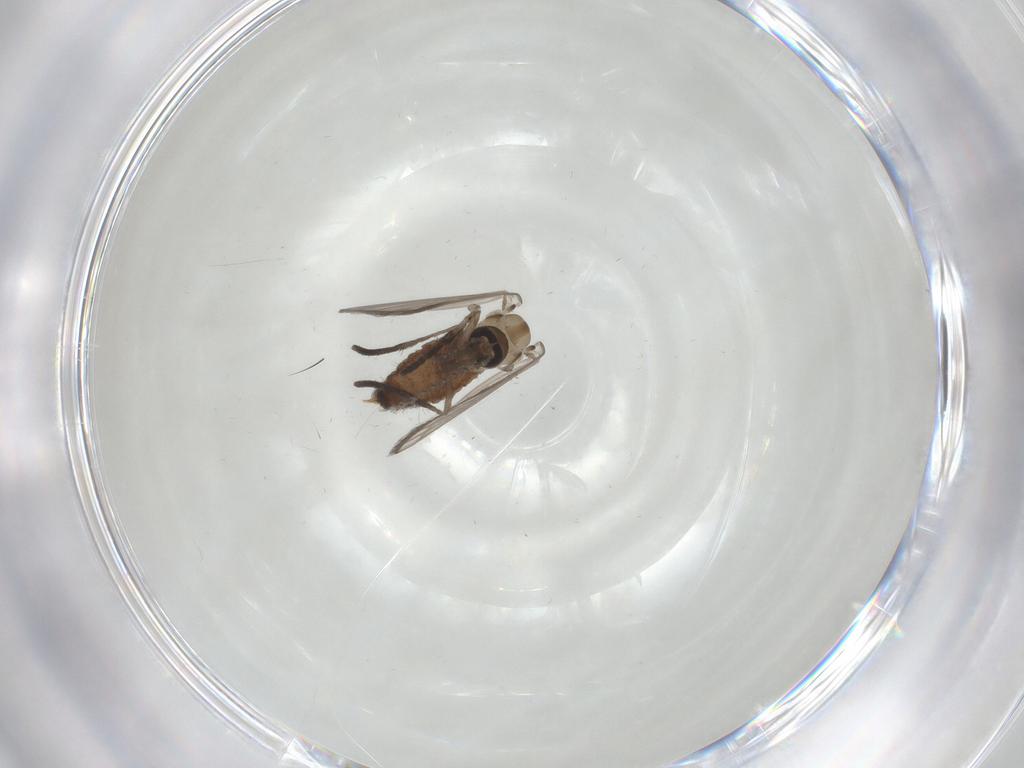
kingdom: Animalia
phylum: Arthropoda
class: Insecta
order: Diptera
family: Psychodidae
